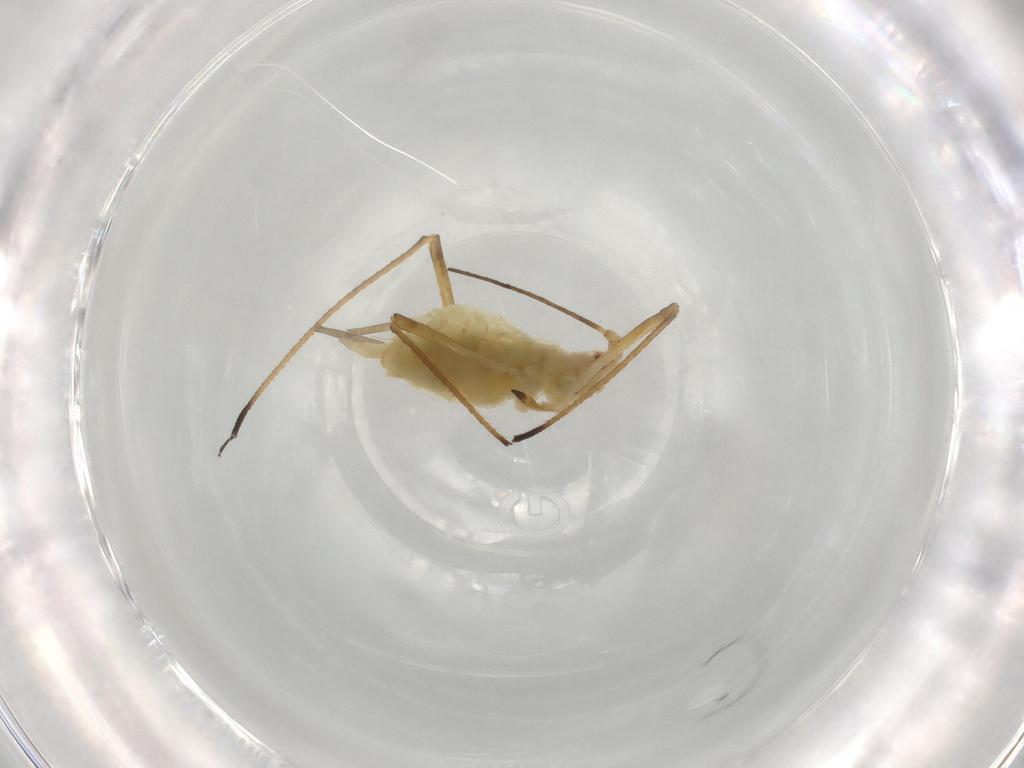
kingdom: Animalia
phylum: Arthropoda
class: Insecta
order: Hemiptera
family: Aphididae
